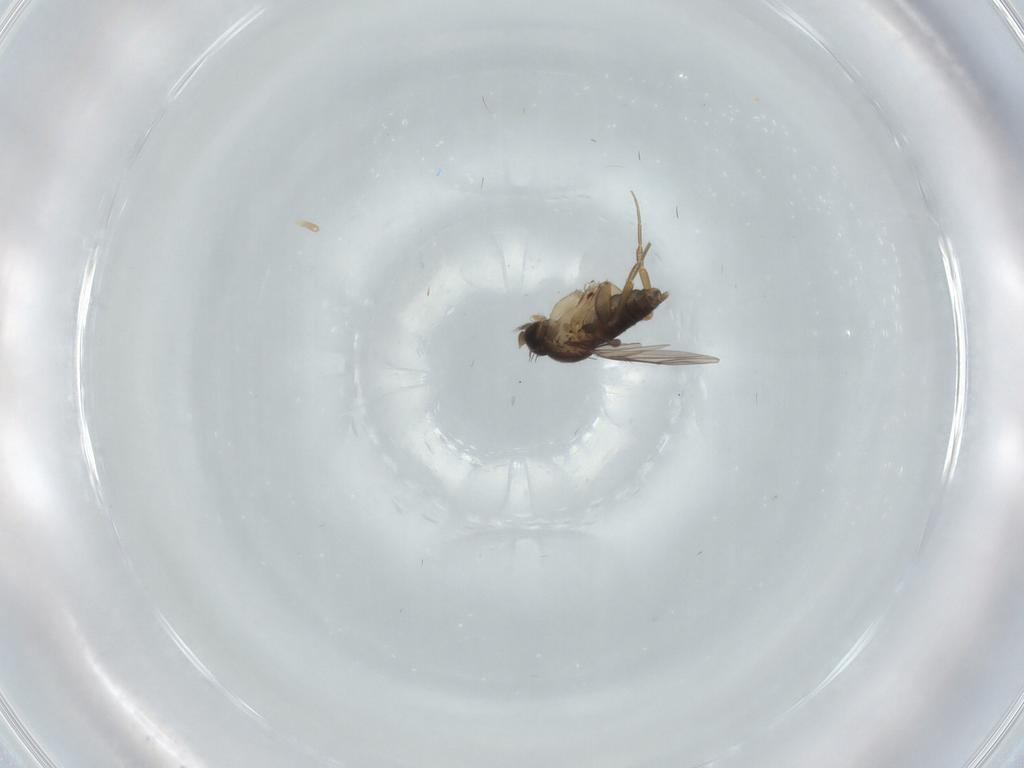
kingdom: Animalia
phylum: Arthropoda
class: Insecta
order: Diptera
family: Cecidomyiidae
